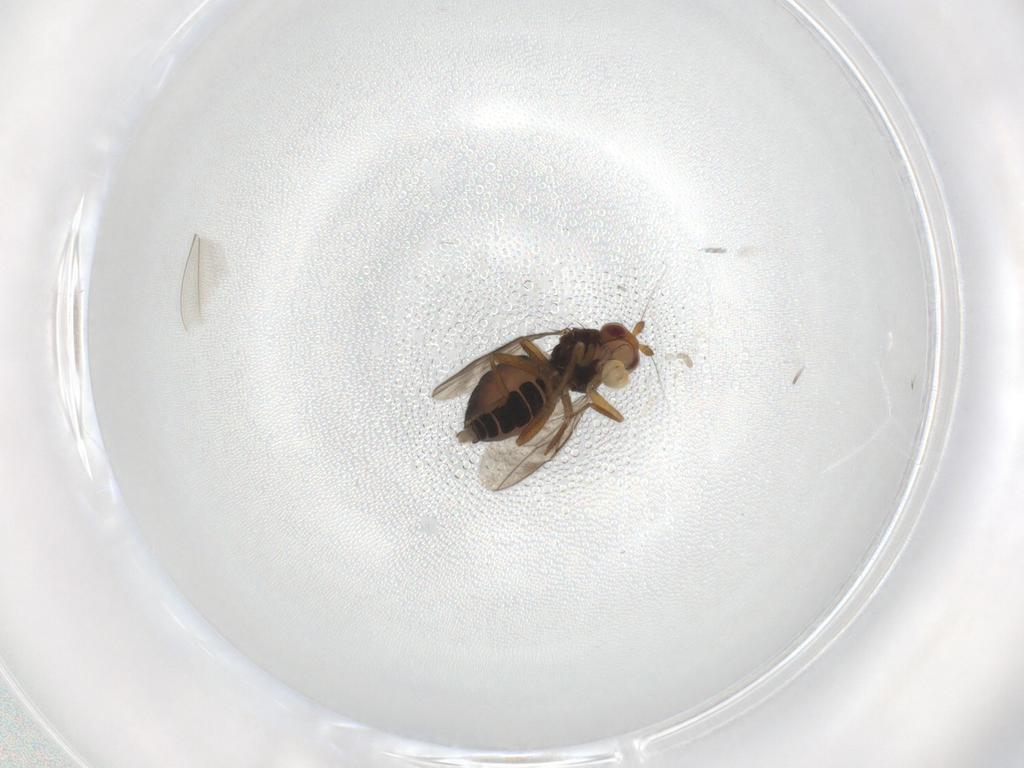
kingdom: Animalia
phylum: Arthropoda
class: Insecta
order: Diptera
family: Sphaeroceridae
